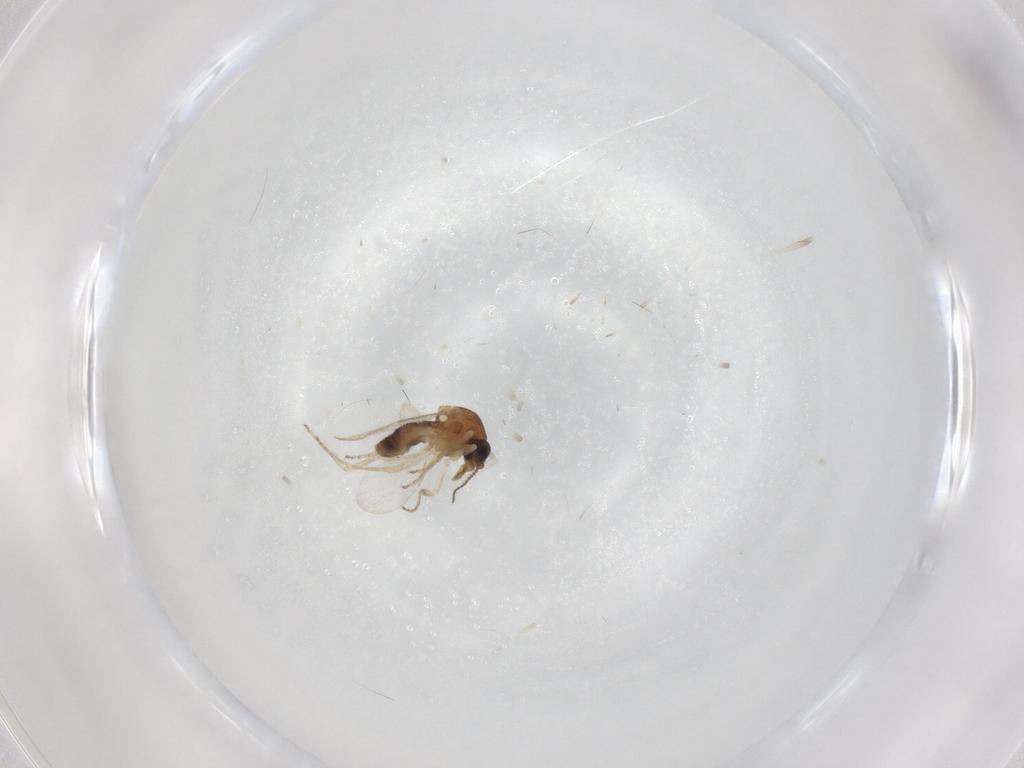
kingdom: Animalia
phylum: Arthropoda
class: Insecta
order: Diptera
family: Ceratopogonidae
